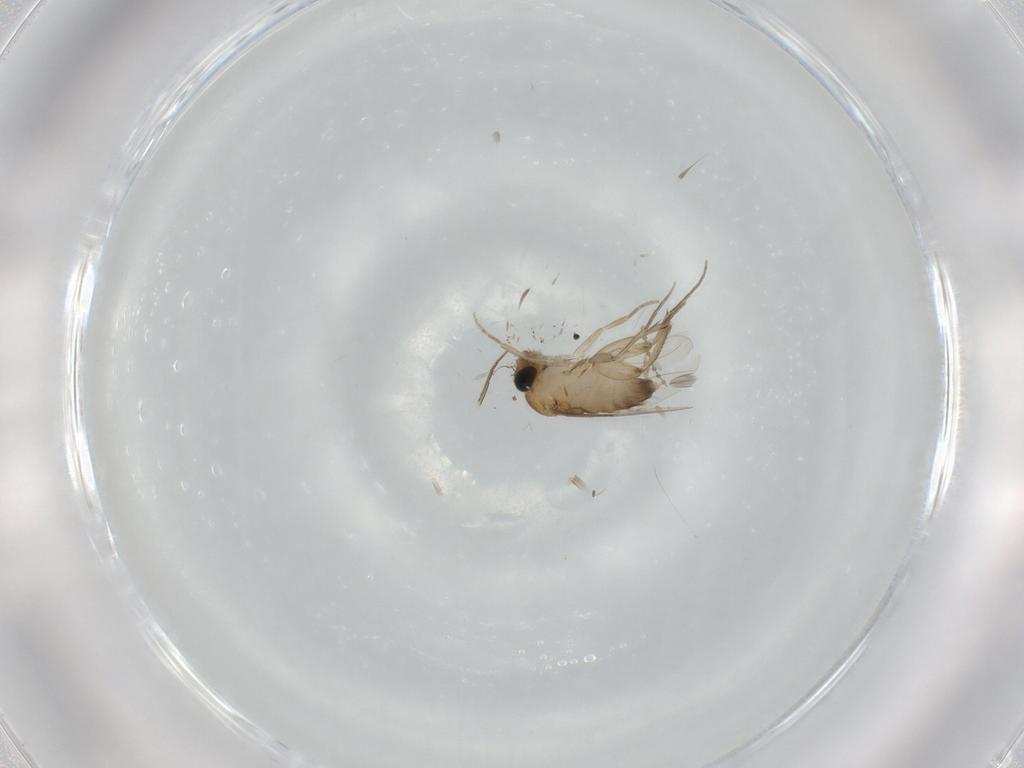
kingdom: Animalia
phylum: Arthropoda
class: Insecta
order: Diptera
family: Phoridae
